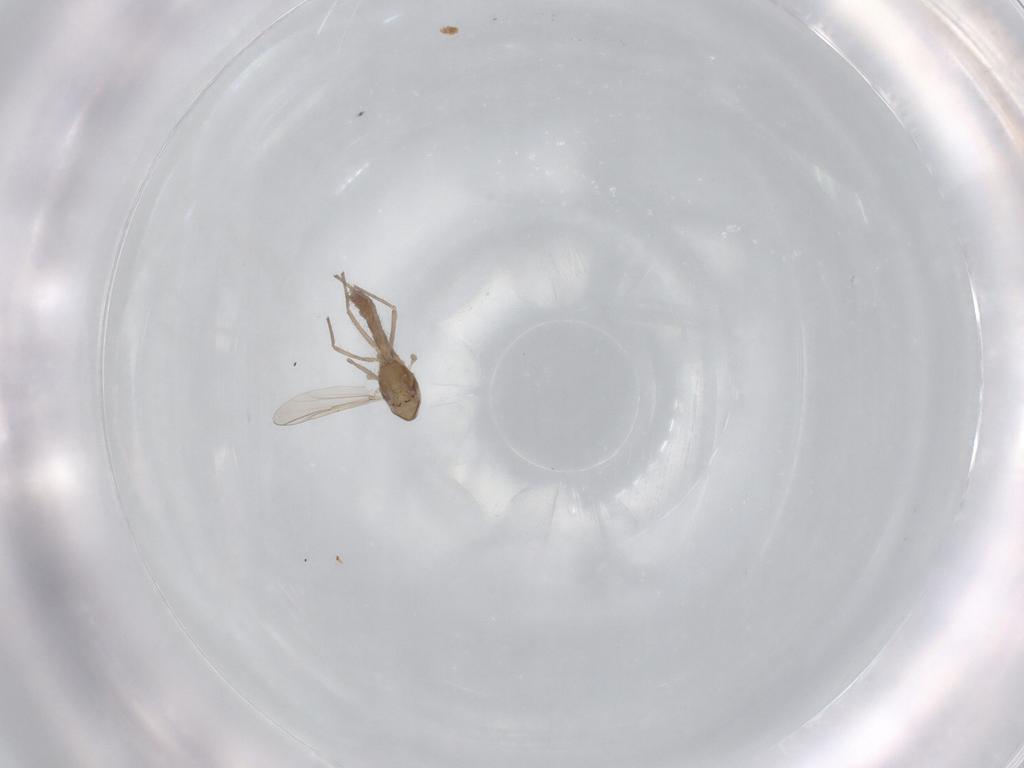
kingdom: Animalia
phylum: Arthropoda
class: Insecta
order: Diptera
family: Chironomidae
